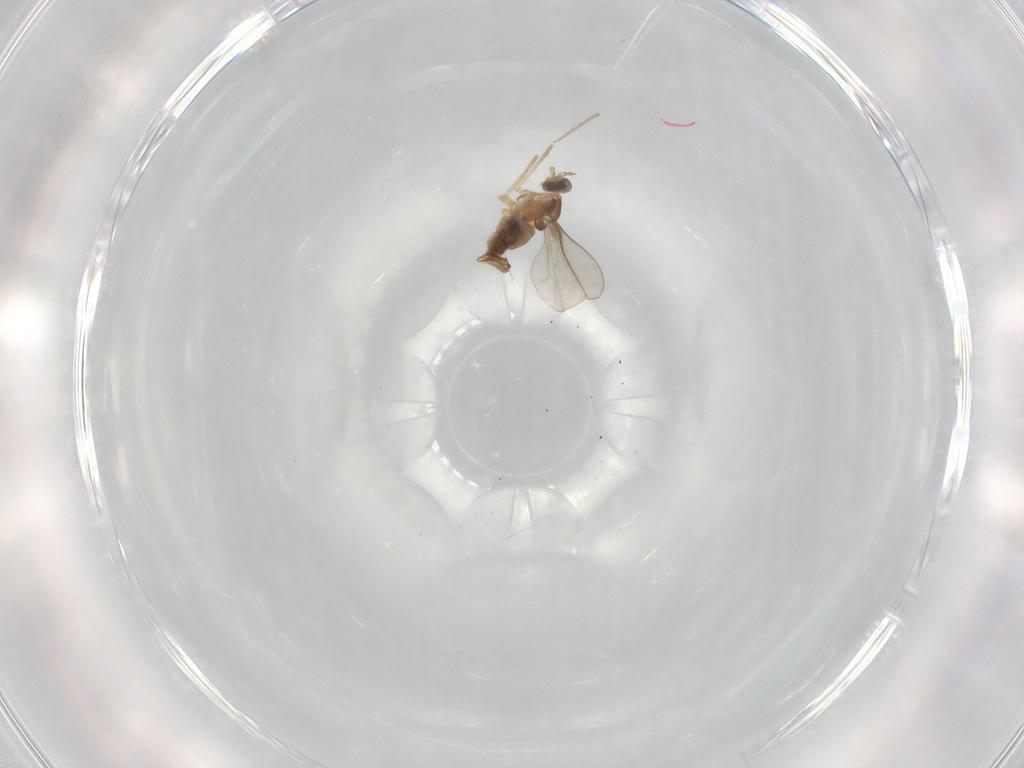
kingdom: Animalia
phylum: Arthropoda
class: Insecta
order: Diptera
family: Cecidomyiidae
